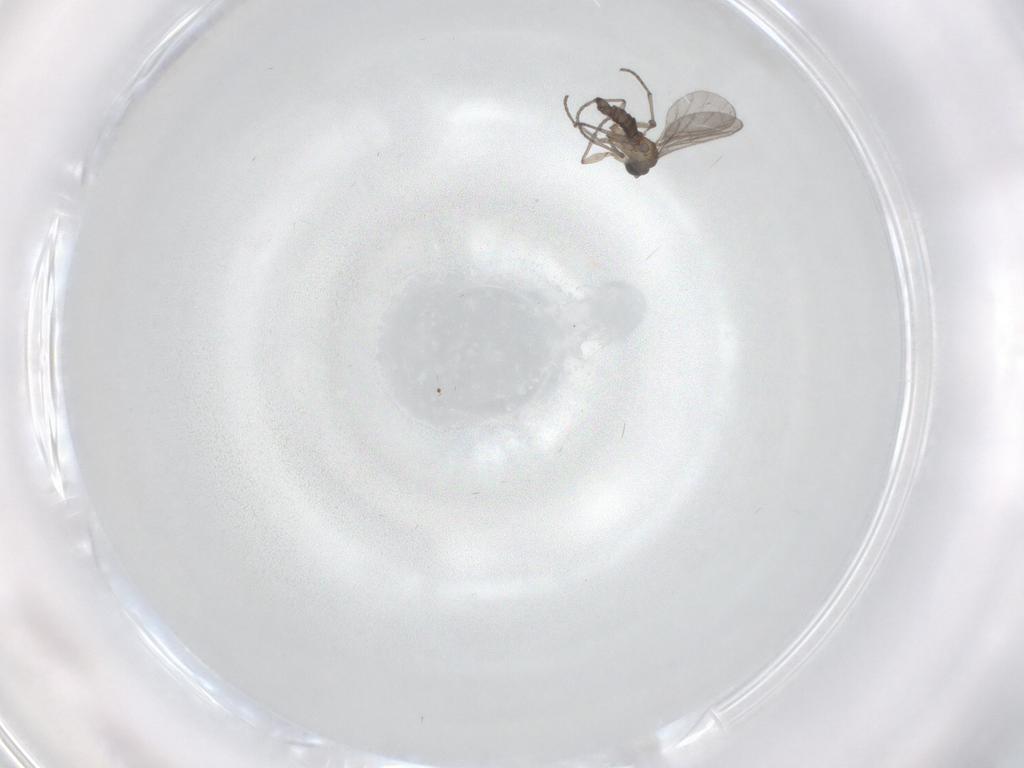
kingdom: Animalia
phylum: Arthropoda
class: Insecta
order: Diptera
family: Sciaridae
